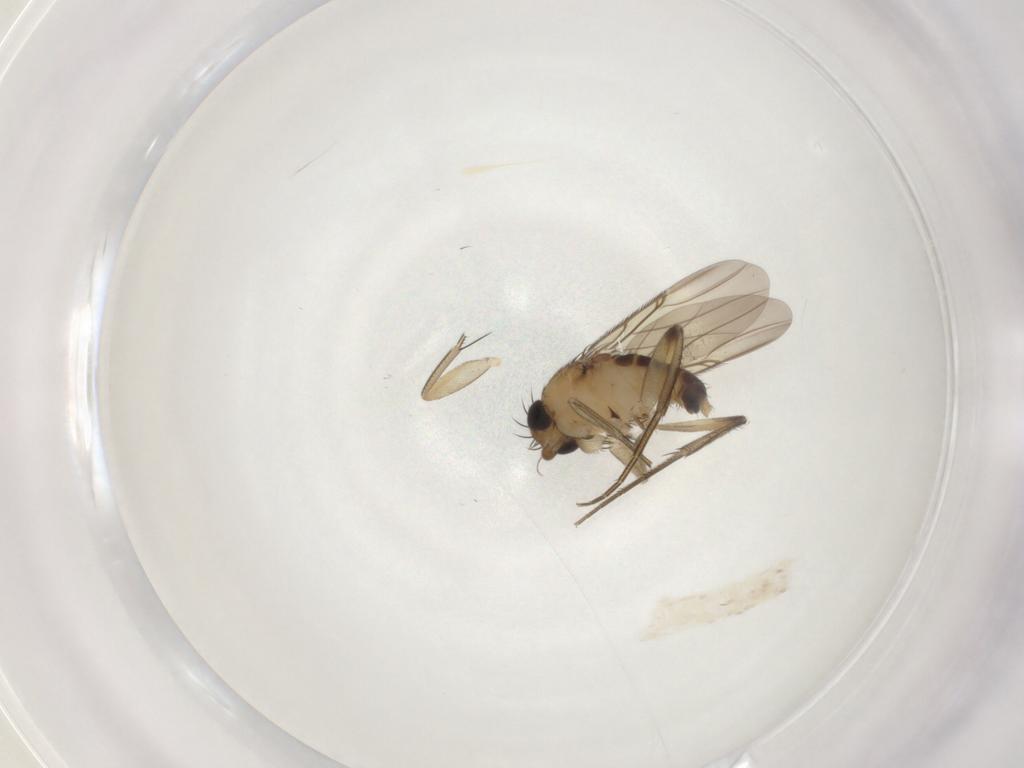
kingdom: Animalia
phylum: Arthropoda
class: Insecta
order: Diptera
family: Phoridae
